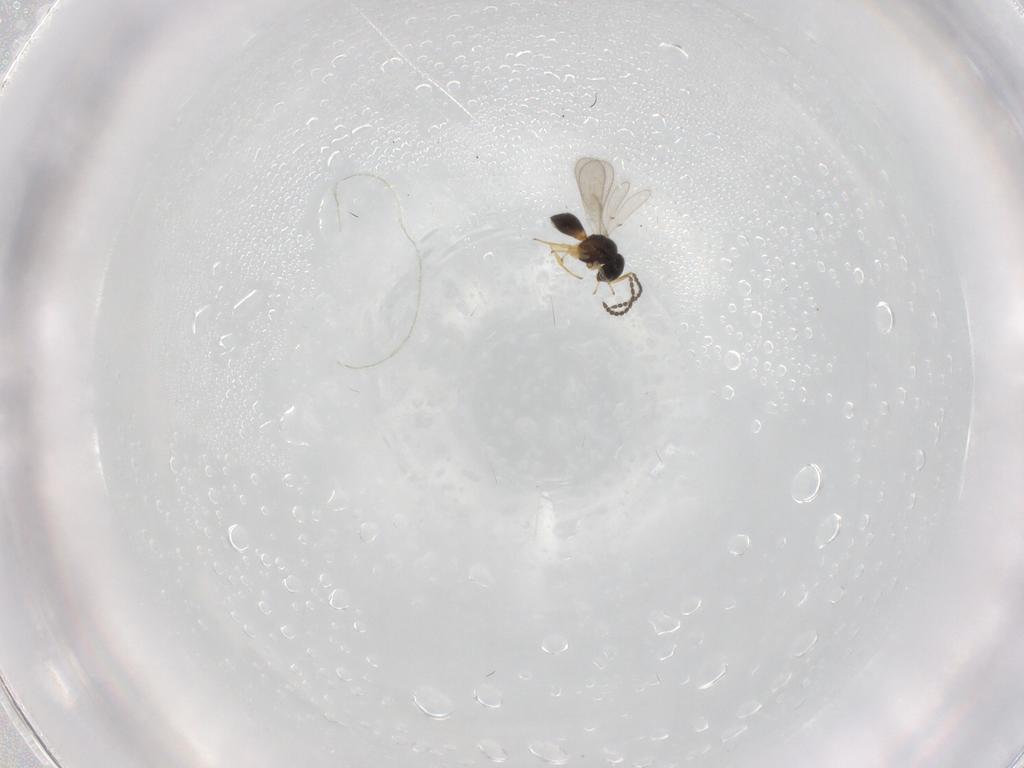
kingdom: Animalia
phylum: Arthropoda
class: Insecta
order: Hymenoptera
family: Scelionidae
